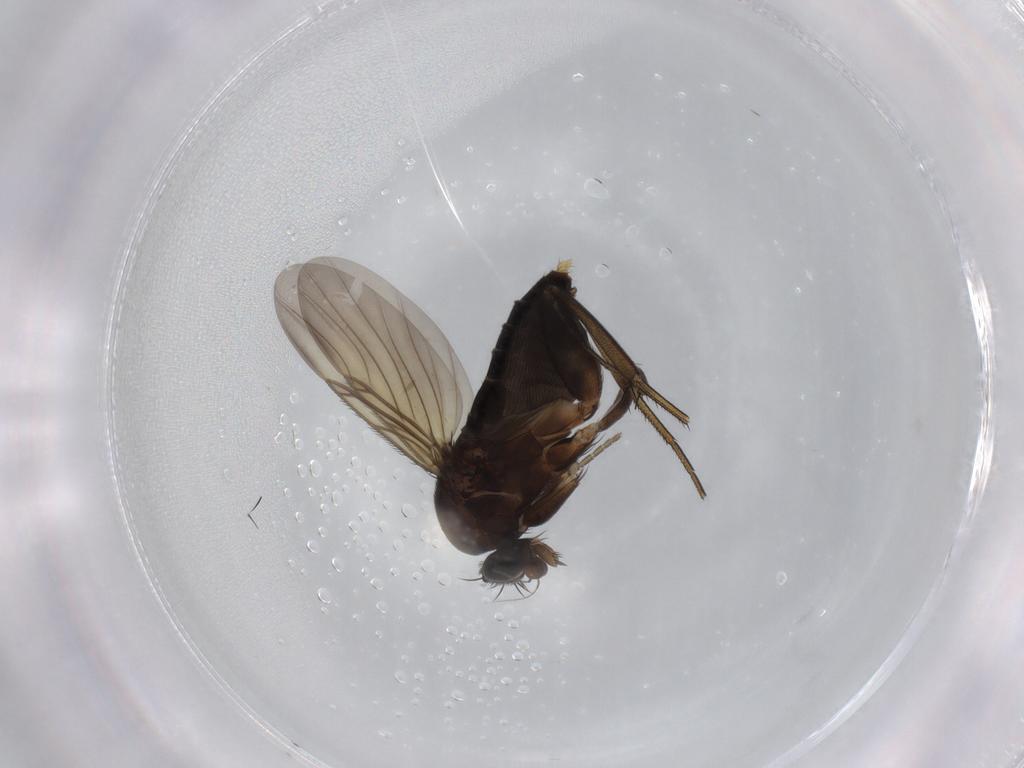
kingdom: Animalia
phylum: Arthropoda
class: Insecta
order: Diptera
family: Phoridae
